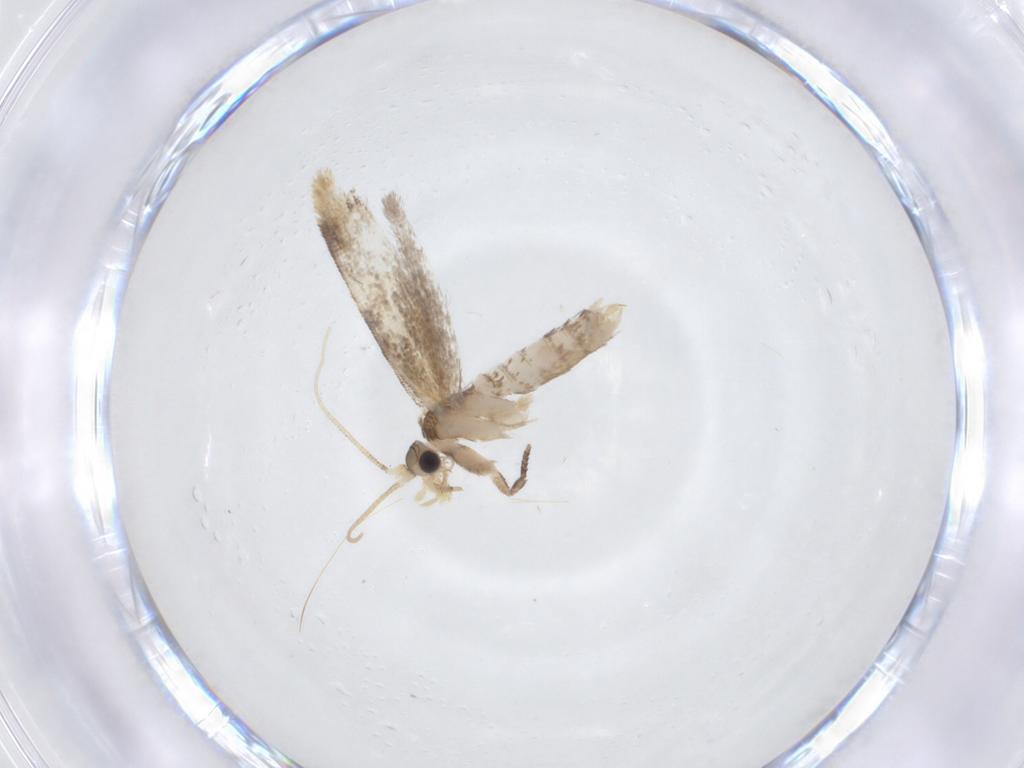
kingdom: Animalia
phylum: Arthropoda
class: Insecta
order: Lepidoptera
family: Dryadaulidae
